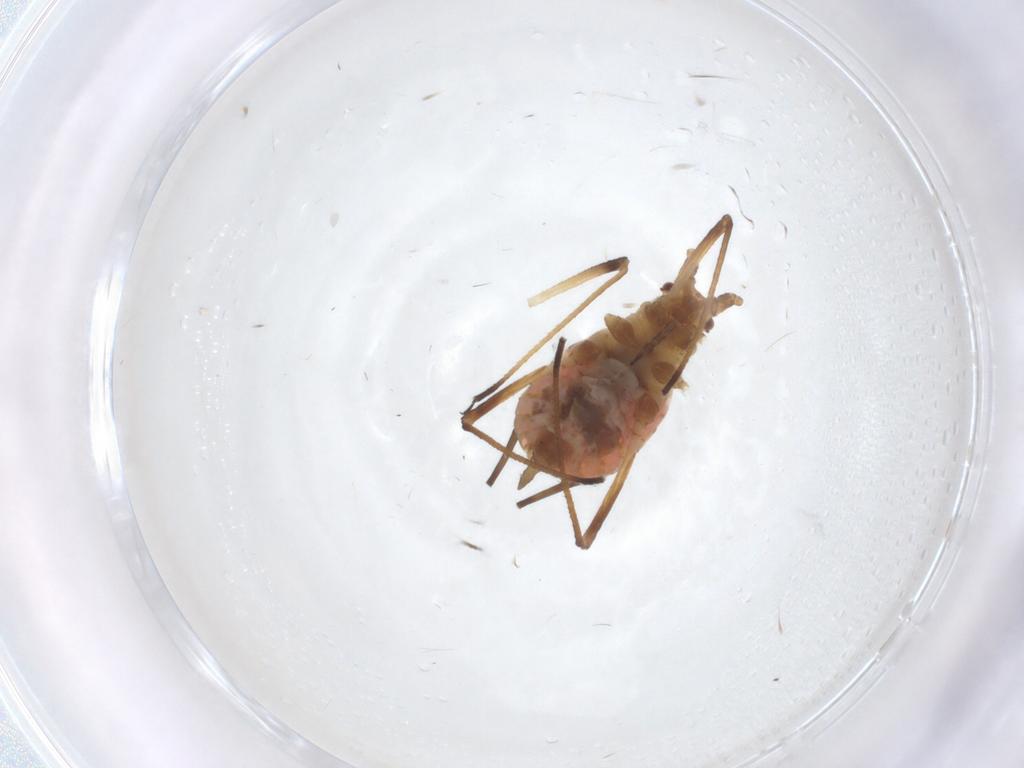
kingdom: Animalia
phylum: Arthropoda
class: Insecta
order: Hemiptera
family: Aphididae
